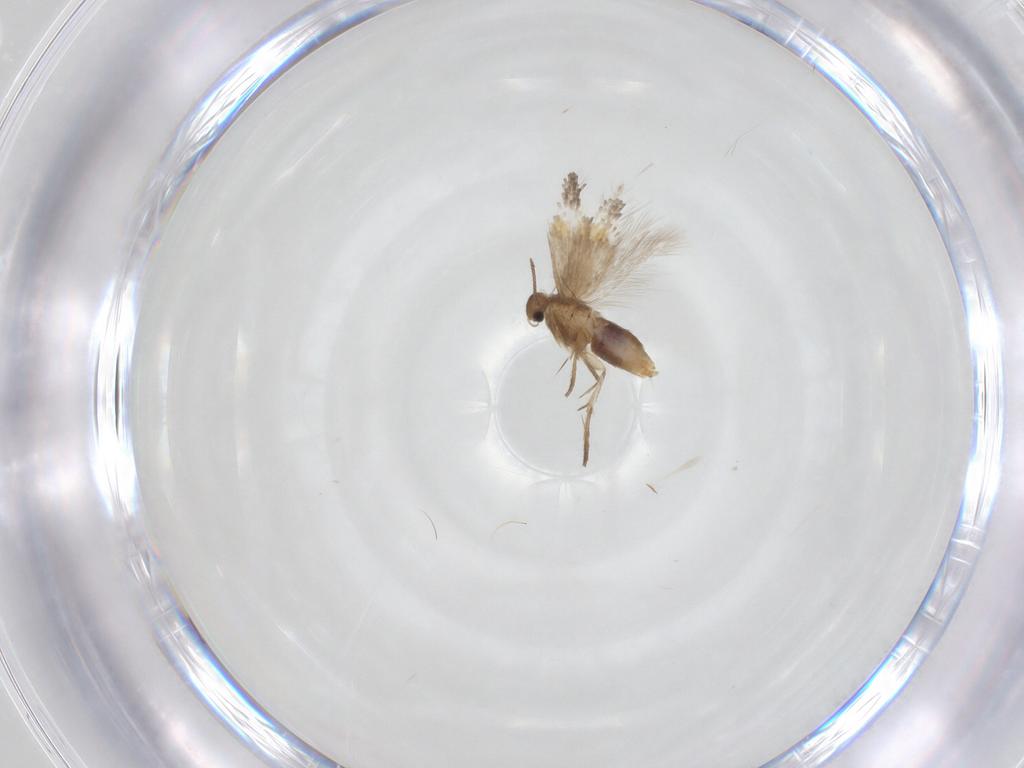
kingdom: Animalia
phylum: Arthropoda
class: Insecta
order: Lepidoptera
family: Heliozelidae
